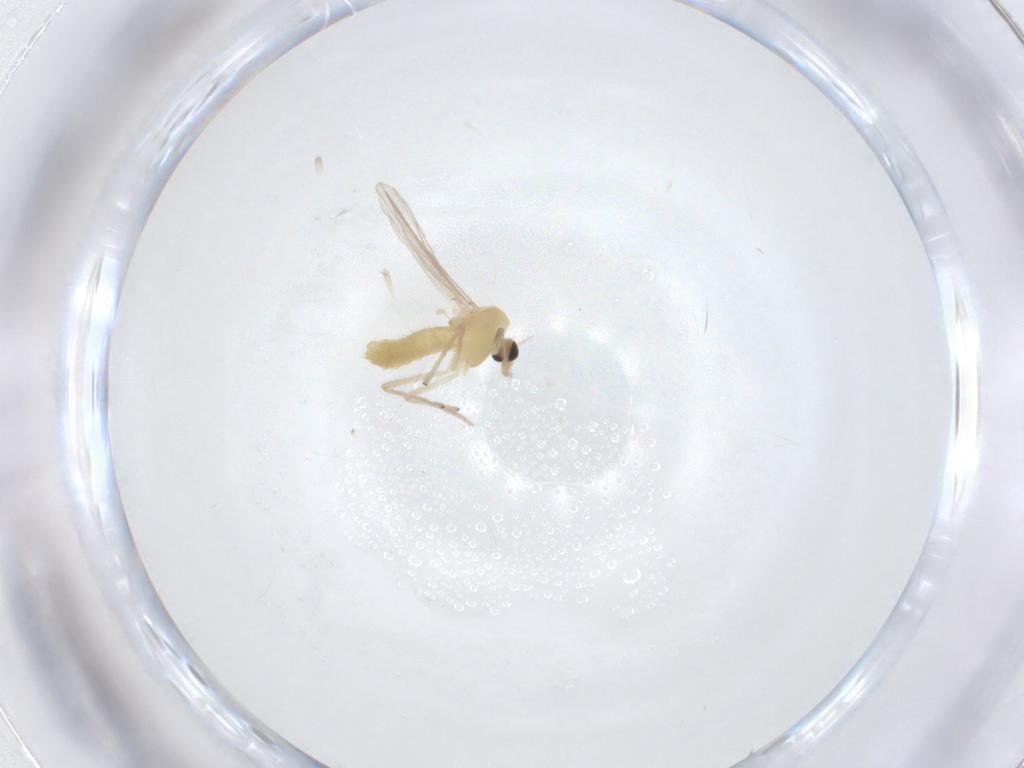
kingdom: Animalia
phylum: Arthropoda
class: Insecta
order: Diptera
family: Chironomidae
